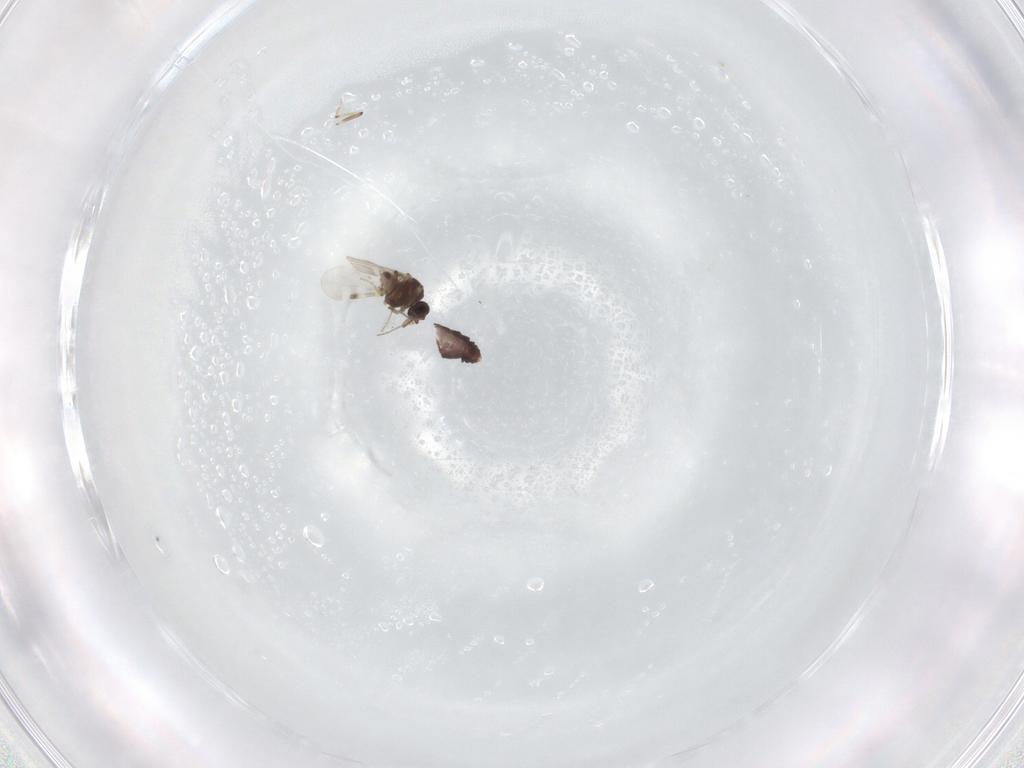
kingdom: Animalia
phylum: Arthropoda
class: Insecta
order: Diptera
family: Sciaridae
